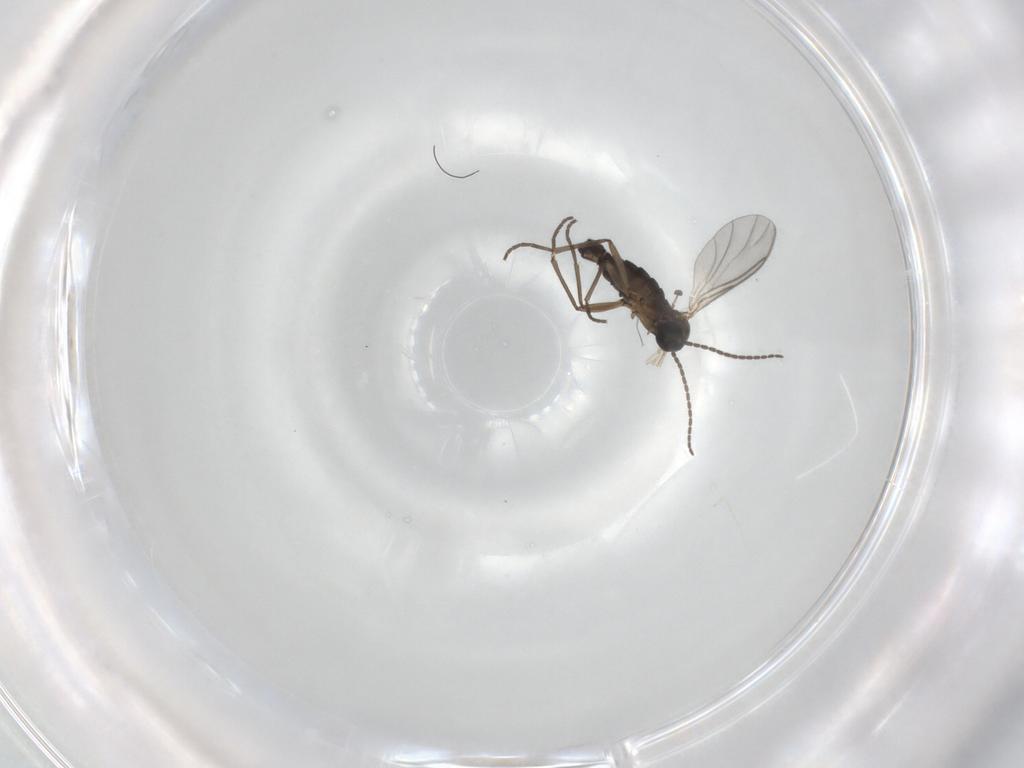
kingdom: Animalia
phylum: Arthropoda
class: Insecta
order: Diptera
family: Sciaridae
